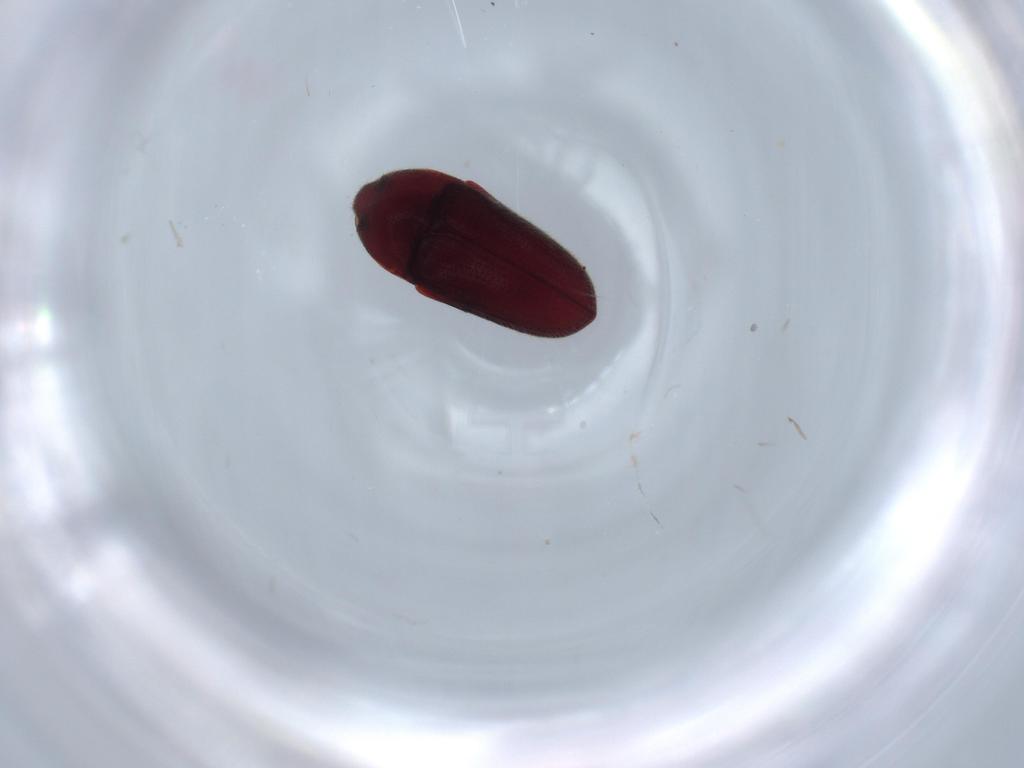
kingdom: Animalia
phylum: Arthropoda
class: Insecta
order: Coleoptera
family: Throscidae
